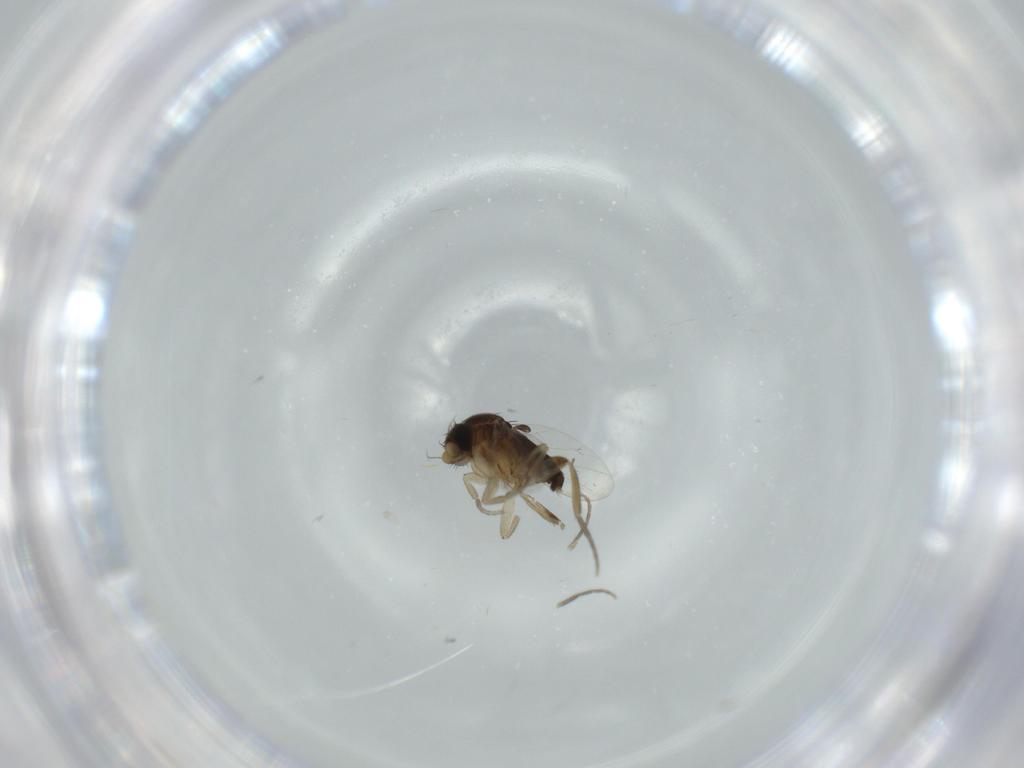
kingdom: Animalia
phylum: Arthropoda
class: Insecta
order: Diptera
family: Phoridae
